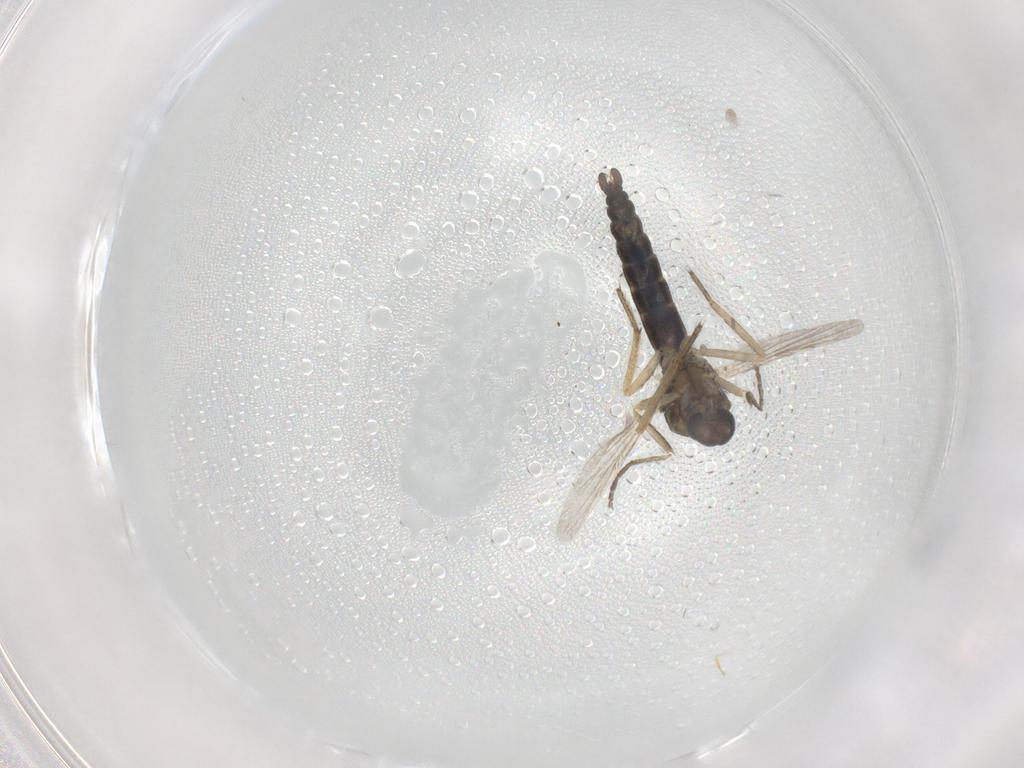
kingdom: Animalia
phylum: Arthropoda
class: Insecta
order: Diptera
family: Ceratopogonidae
